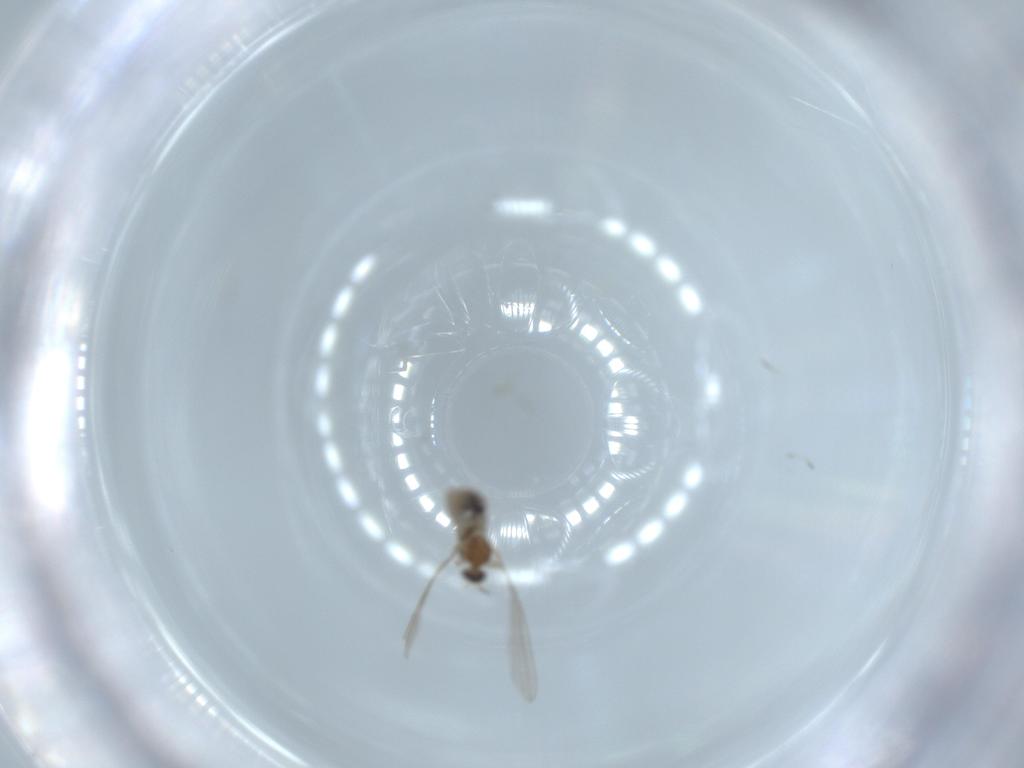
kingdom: Animalia
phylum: Arthropoda
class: Insecta
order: Diptera
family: Cecidomyiidae
